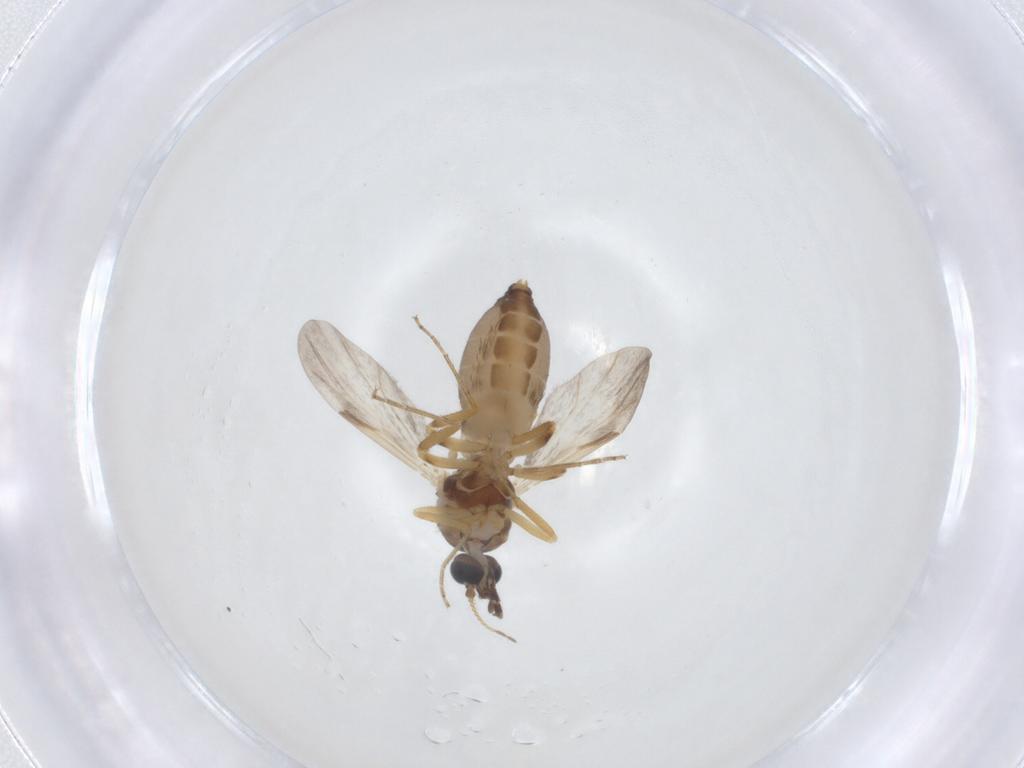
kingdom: Animalia
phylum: Arthropoda
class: Insecta
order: Diptera
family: Ceratopogonidae
